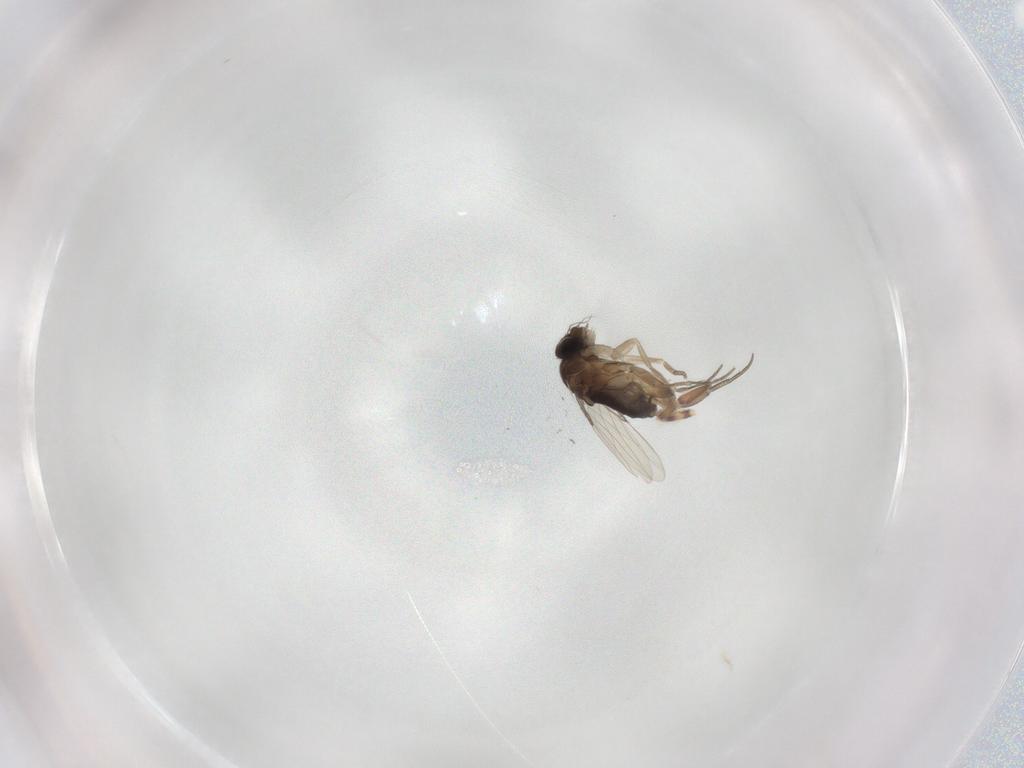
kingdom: Animalia
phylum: Arthropoda
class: Insecta
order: Diptera
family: Phoridae
